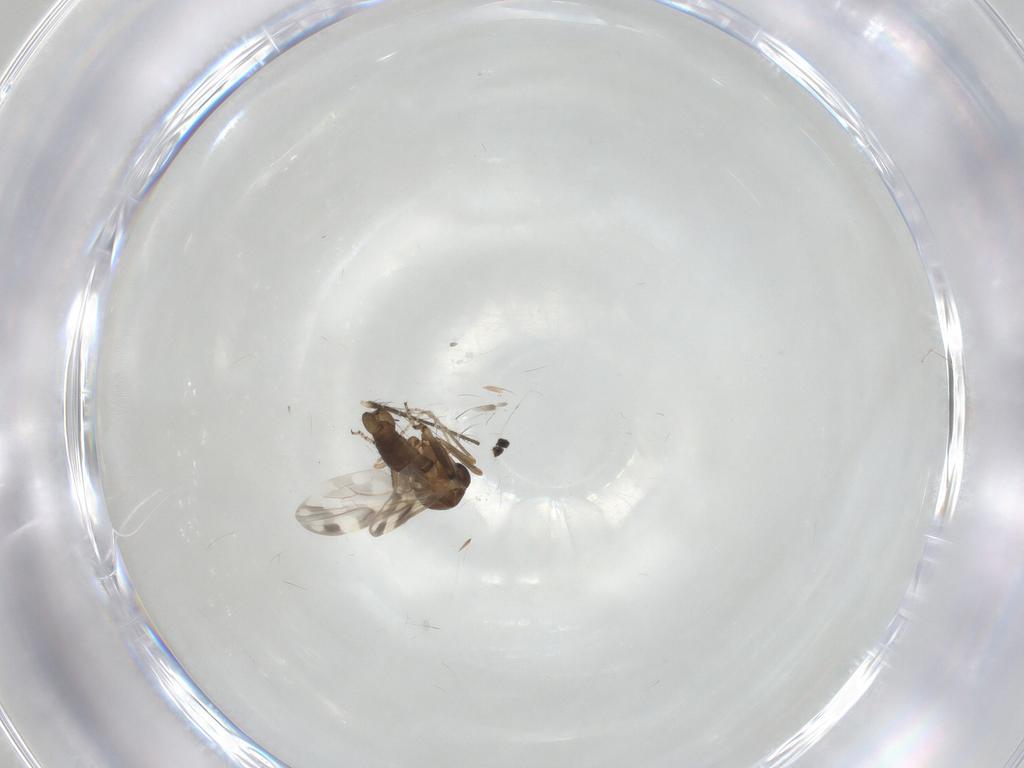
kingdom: Animalia
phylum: Arthropoda
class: Insecta
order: Diptera
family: Ceratopogonidae
